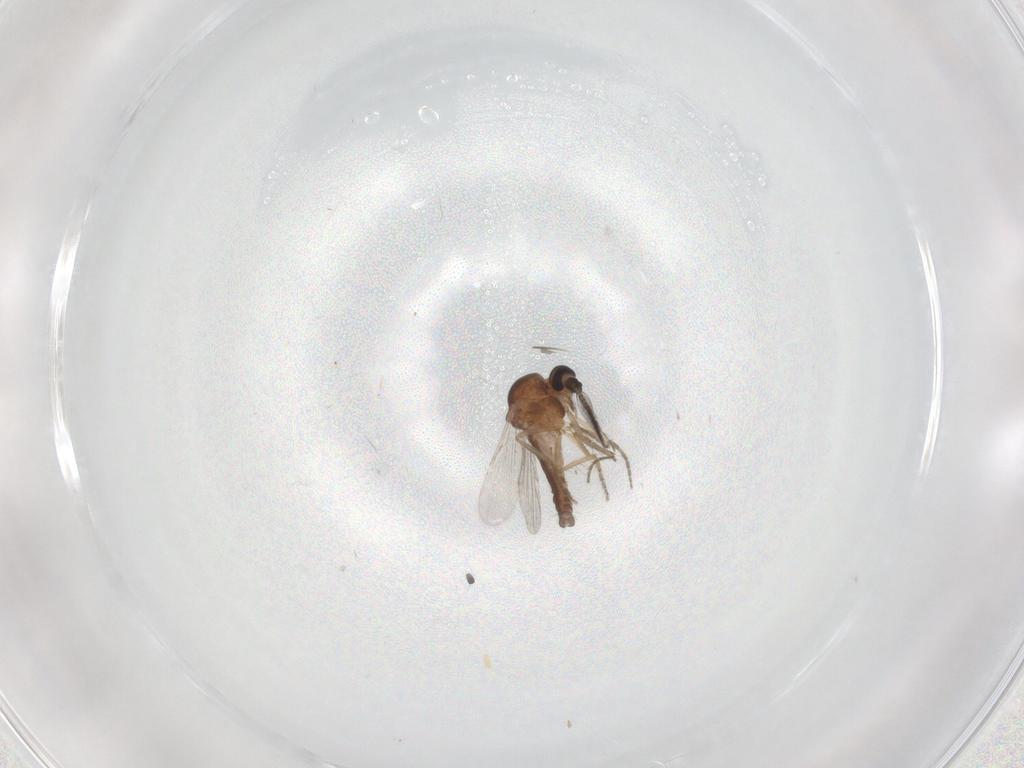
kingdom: Animalia
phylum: Arthropoda
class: Insecta
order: Diptera
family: Ceratopogonidae
